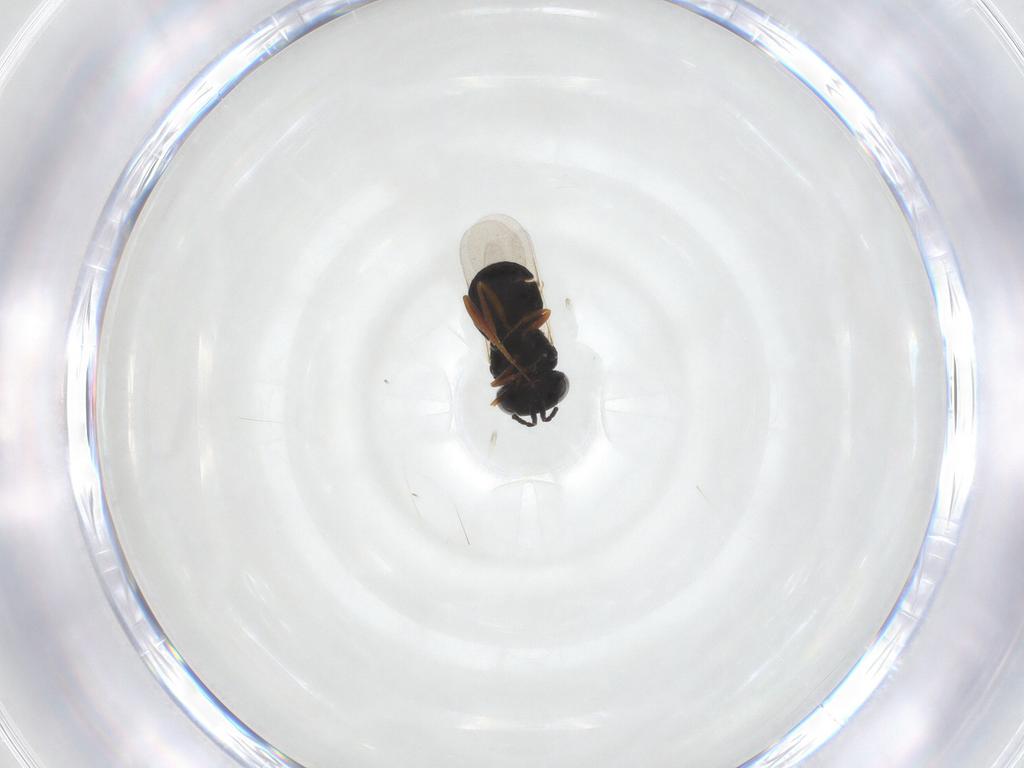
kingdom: Animalia
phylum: Arthropoda
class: Insecta
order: Hymenoptera
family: Scelionidae
